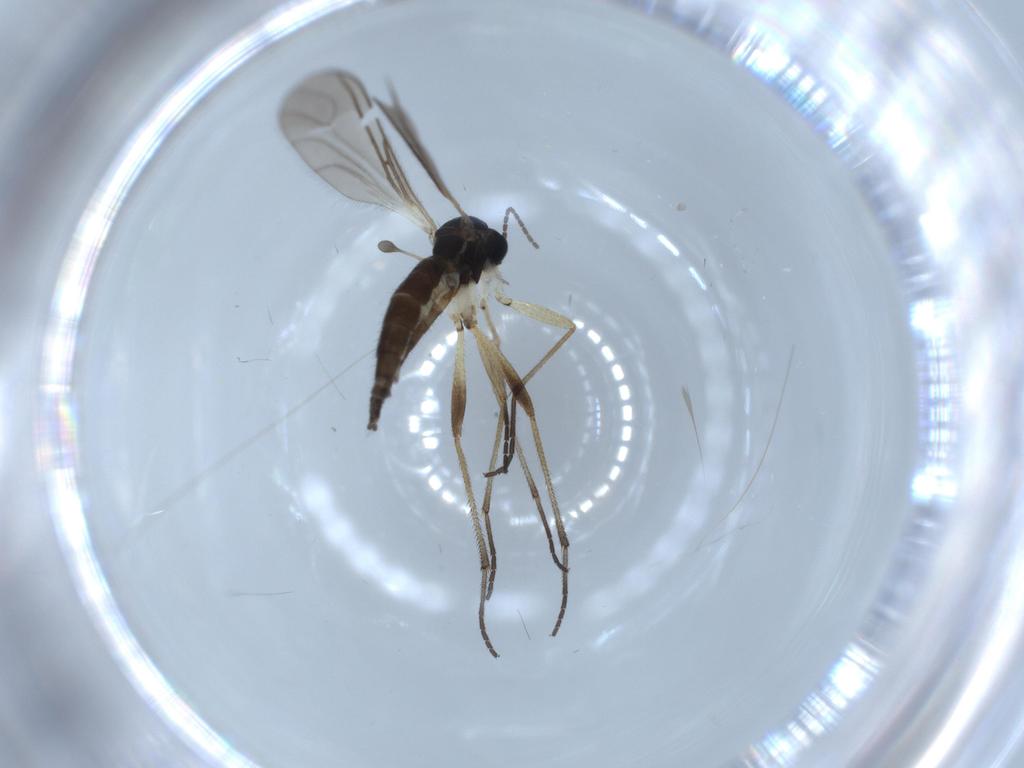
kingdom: Animalia
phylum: Arthropoda
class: Insecta
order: Diptera
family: Sciaridae
